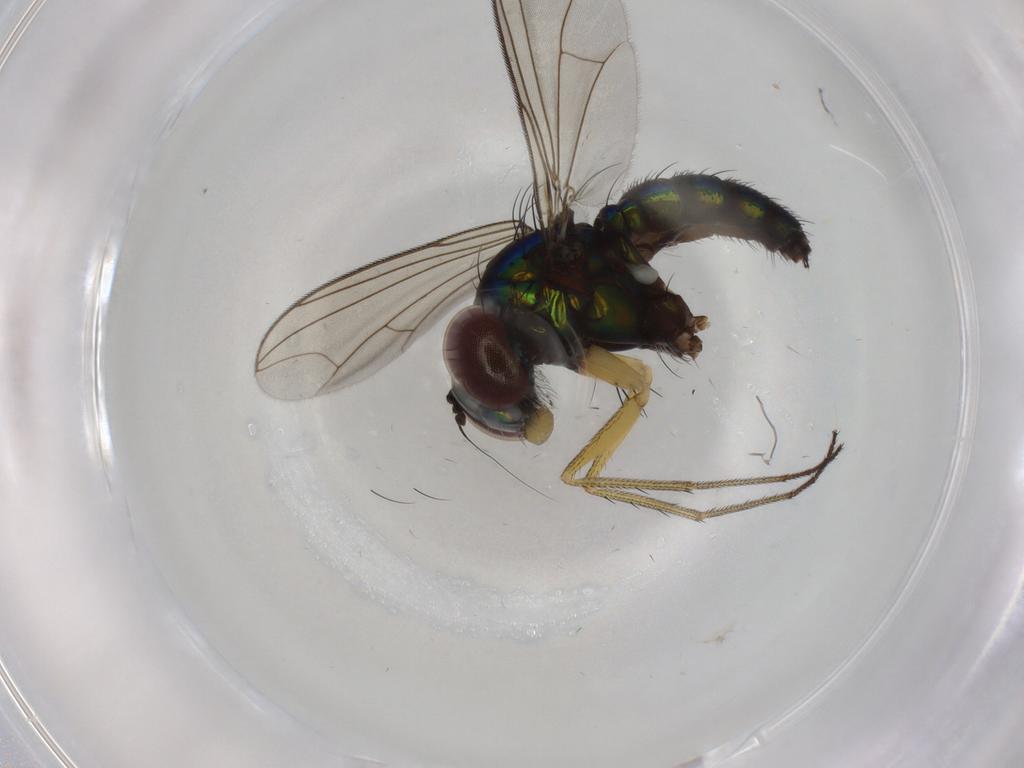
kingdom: Animalia
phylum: Arthropoda
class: Insecta
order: Diptera
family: Dolichopodidae
